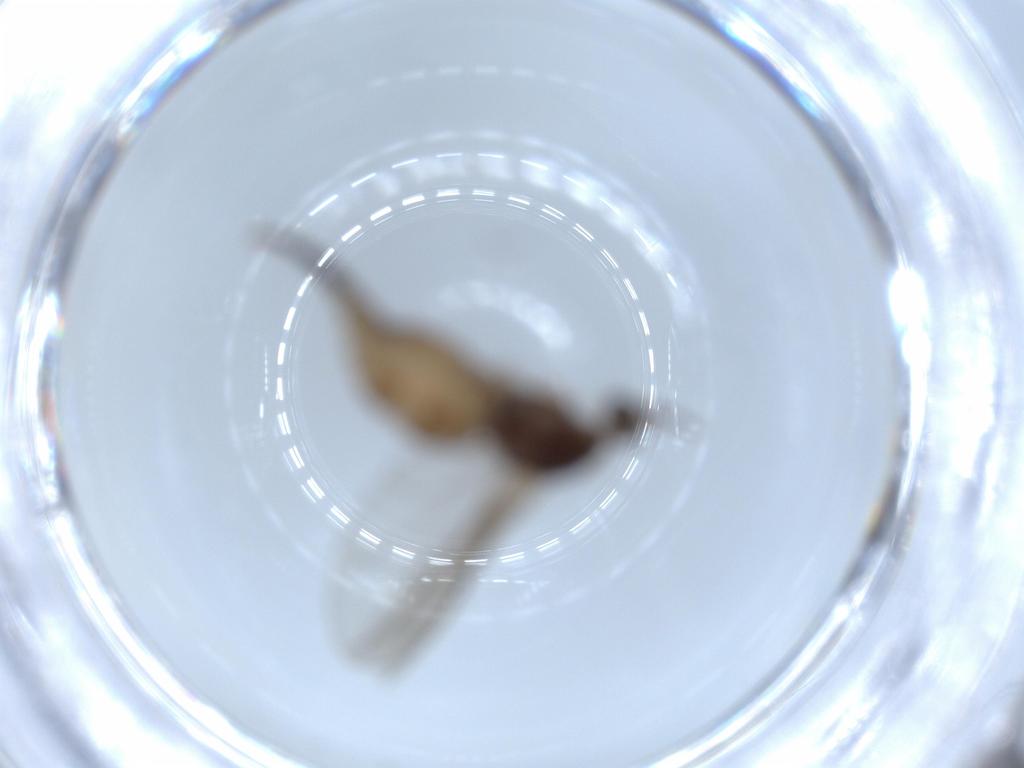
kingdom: Animalia
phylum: Arthropoda
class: Insecta
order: Diptera
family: Cecidomyiidae
